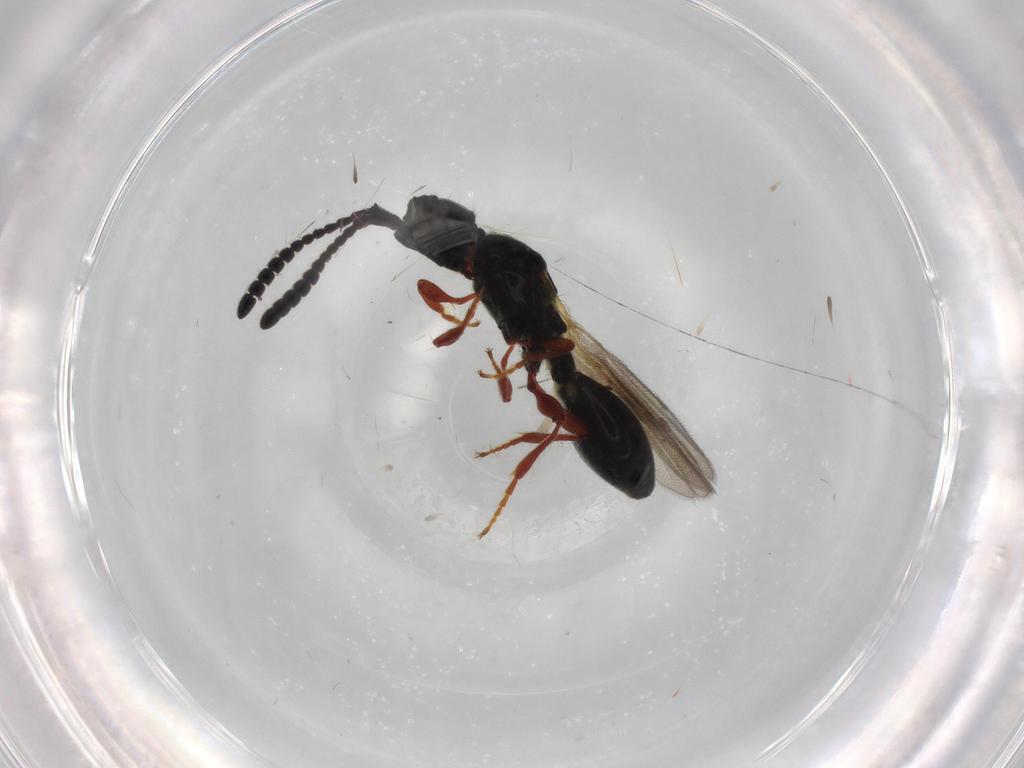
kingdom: Animalia
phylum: Arthropoda
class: Insecta
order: Hymenoptera
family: Diapriidae
